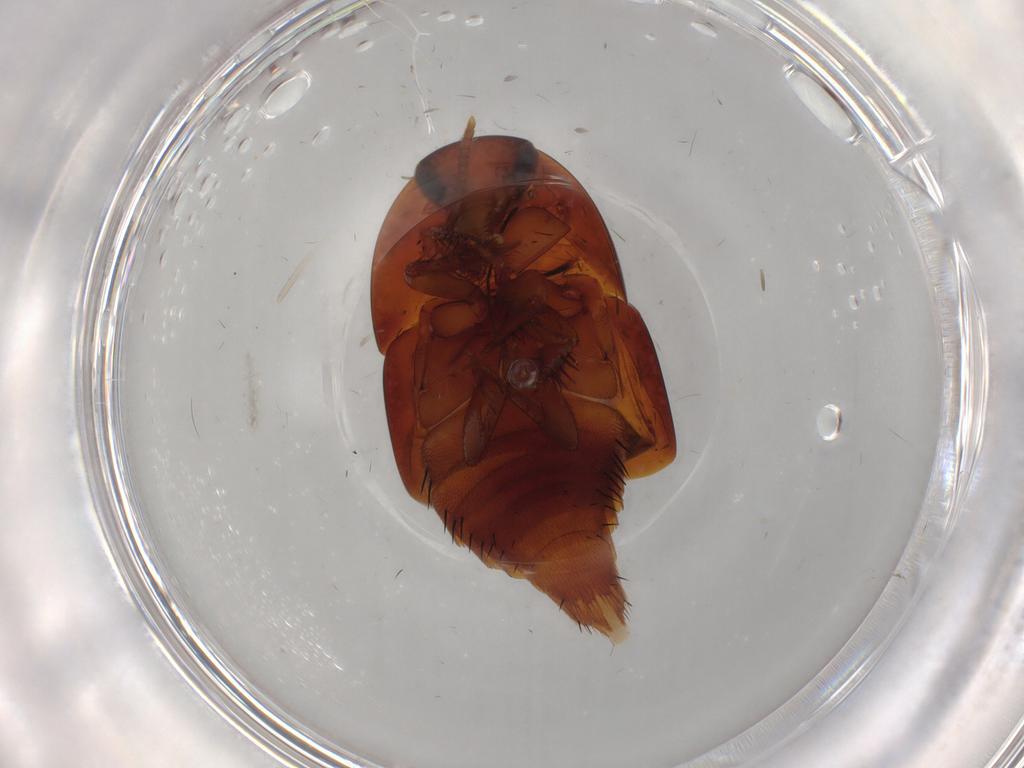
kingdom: Animalia
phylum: Arthropoda
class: Insecta
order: Coleoptera
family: Staphylinidae
